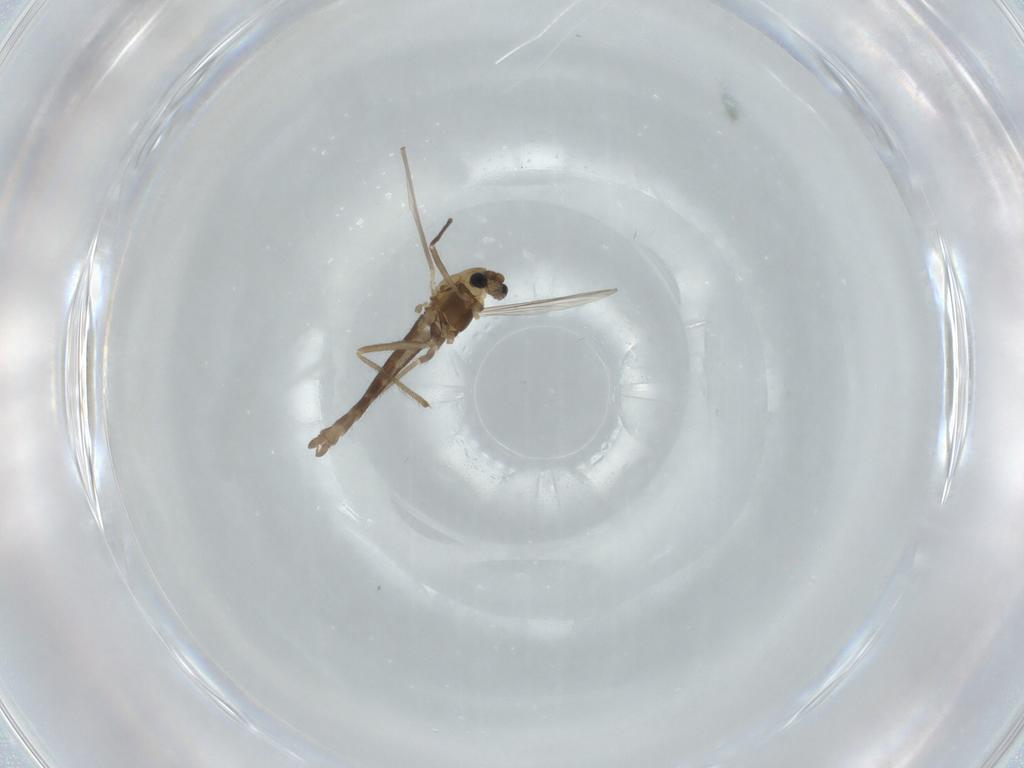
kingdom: Animalia
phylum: Arthropoda
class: Insecta
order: Diptera
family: Chironomidae
